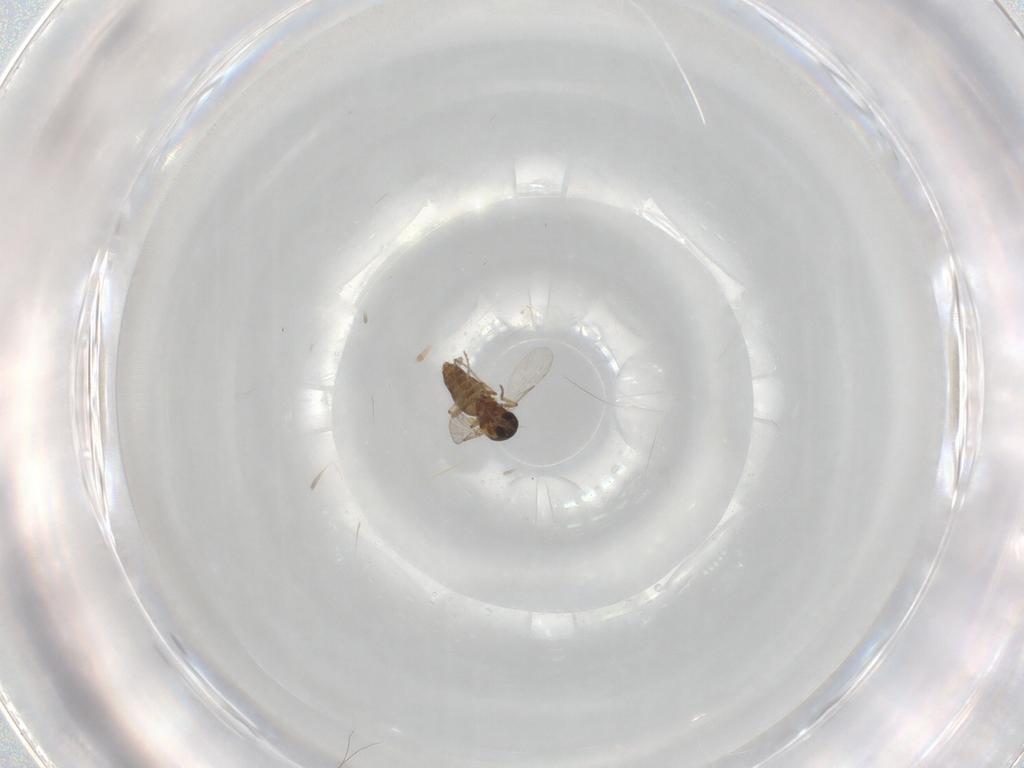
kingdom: Animalia
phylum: Arthropoda
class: Insecta
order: Diptera
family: Ceratopogonidae
